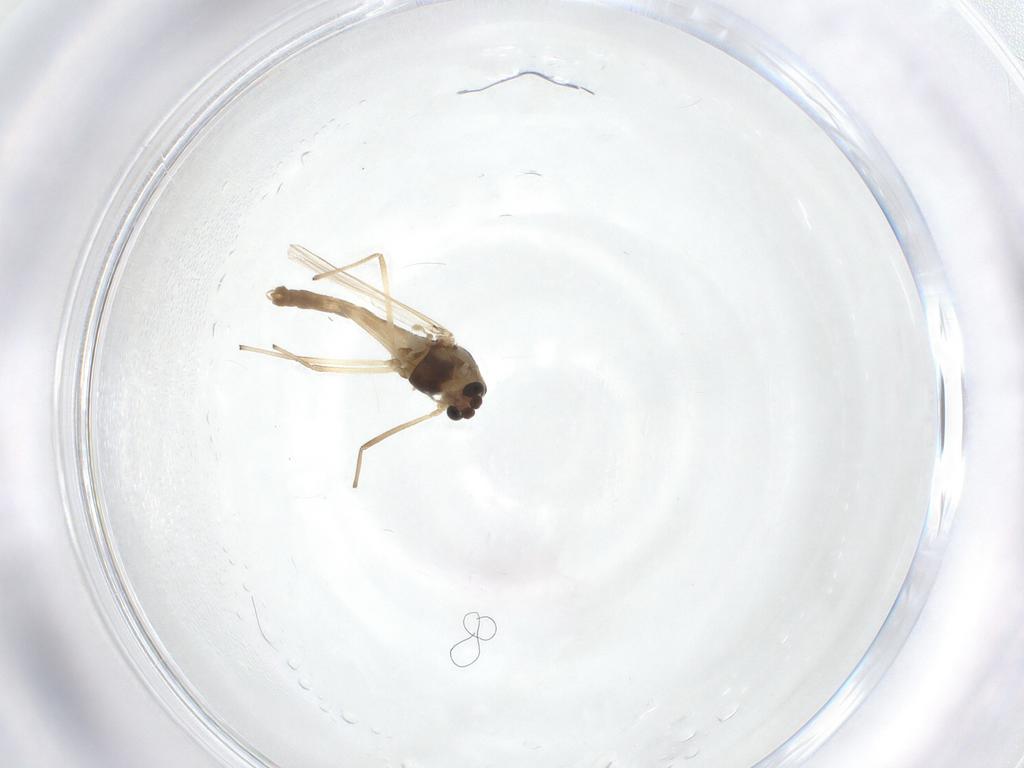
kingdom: Animalia
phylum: Arthropoda
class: Insecta
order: Diptera
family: Chironomidae
